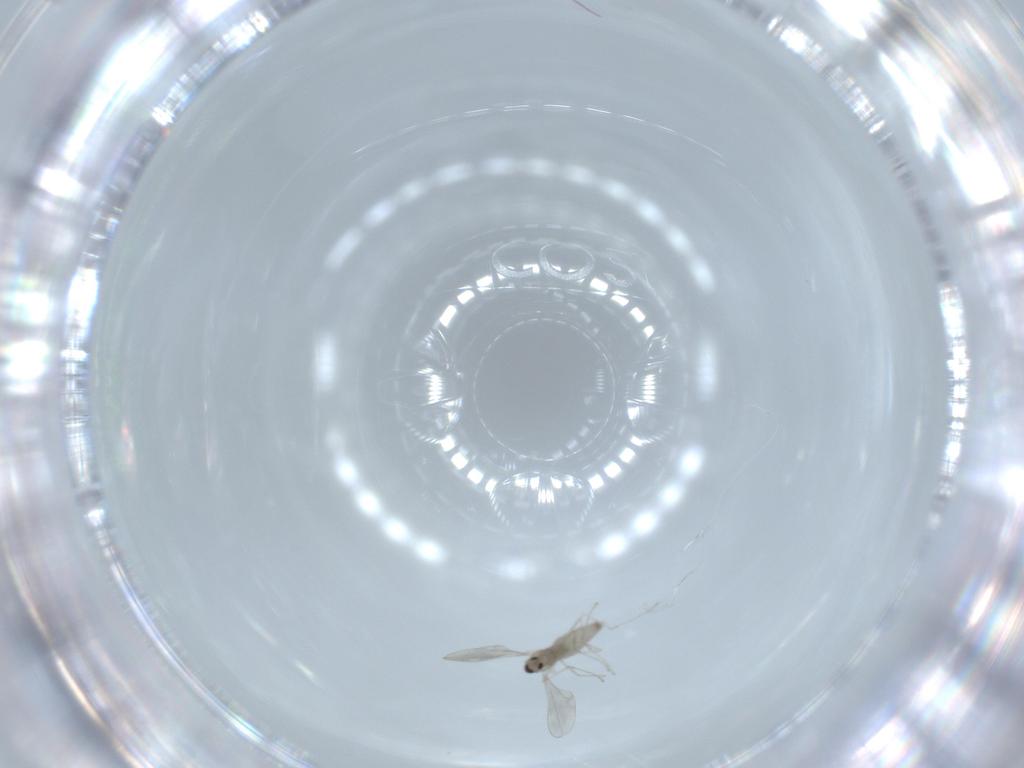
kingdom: Animalia
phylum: Arthropoda
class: Insecta
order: Diptera
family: Cecidomyiidae
